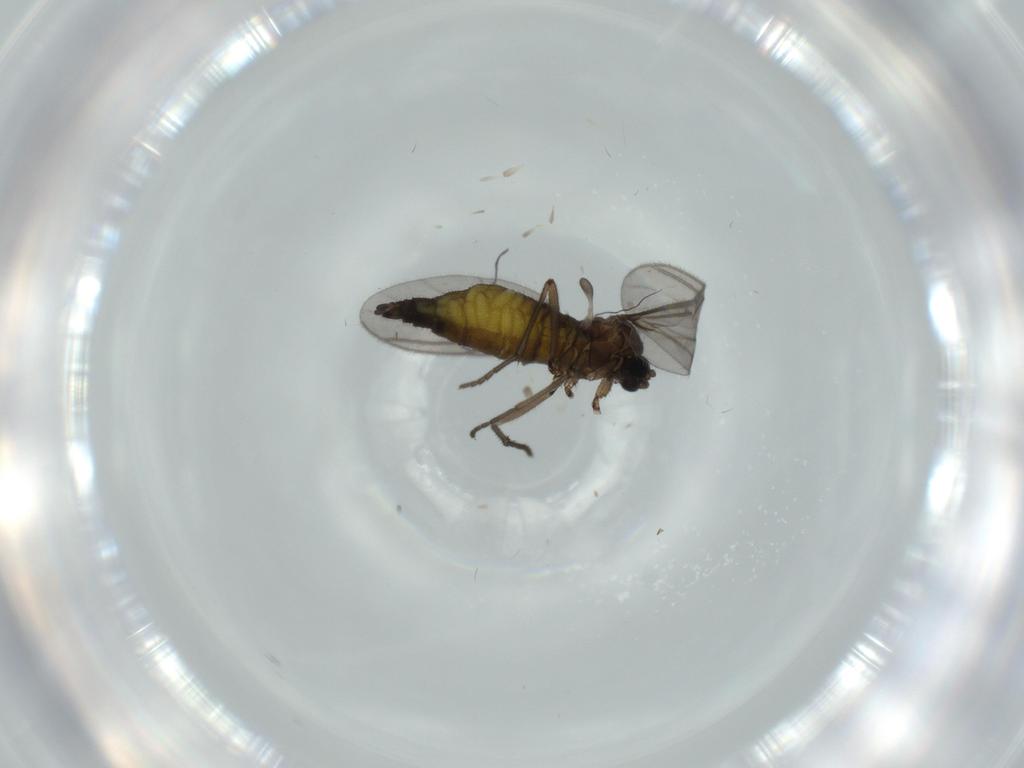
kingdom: Animalia
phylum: Arthropoda
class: Insecta
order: Diptera
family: Sciaridae
